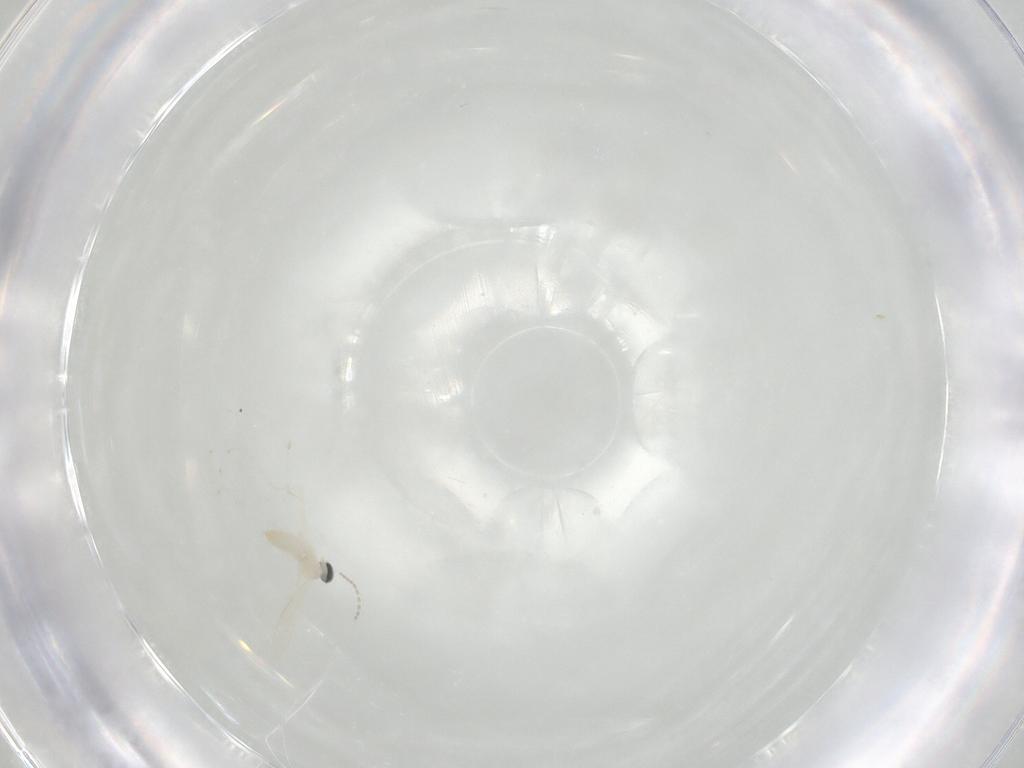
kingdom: Animalia
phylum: Arthropoda
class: Insecta
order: Diptera
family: Cecidomyiidae
